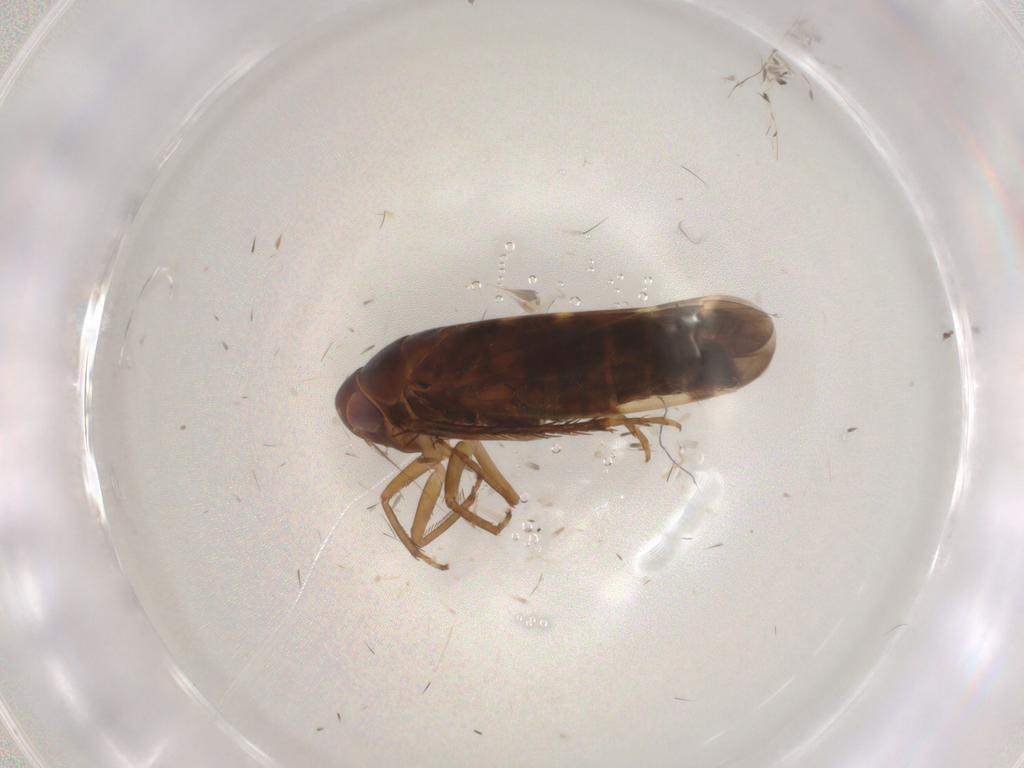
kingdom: Animalia
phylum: Arthropoda
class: Insecta
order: Hemiptera
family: Cicadellidae
